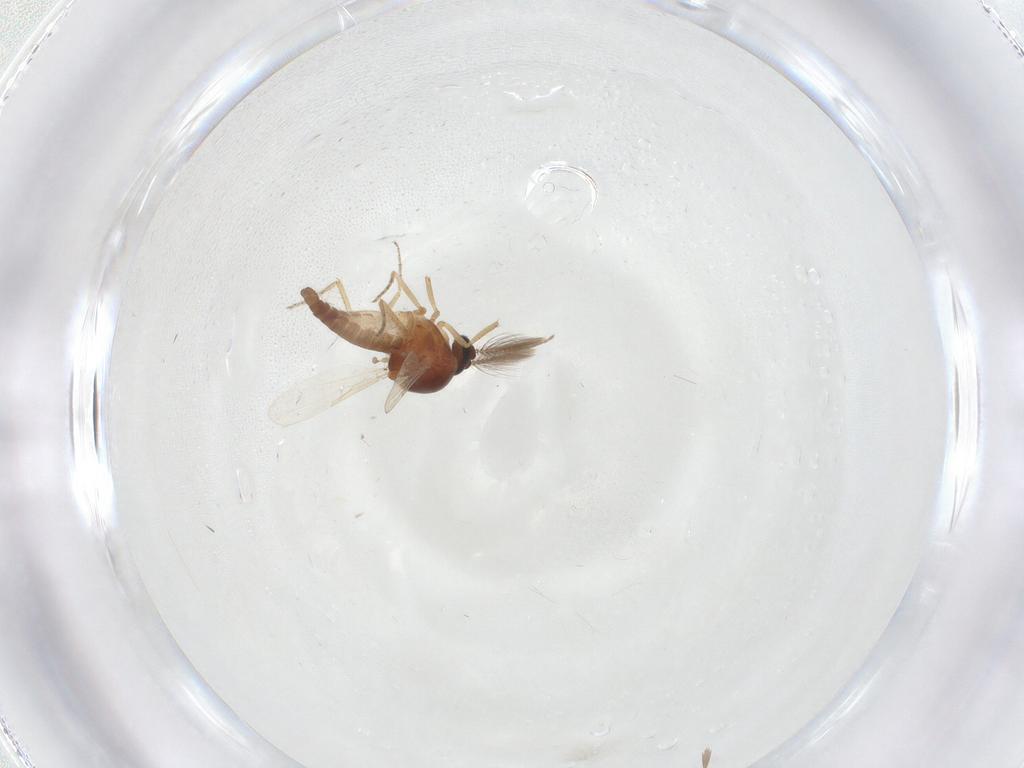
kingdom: Animalia
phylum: Arthropoda
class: Insecta
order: Diptera
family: Ceratopogonidae
